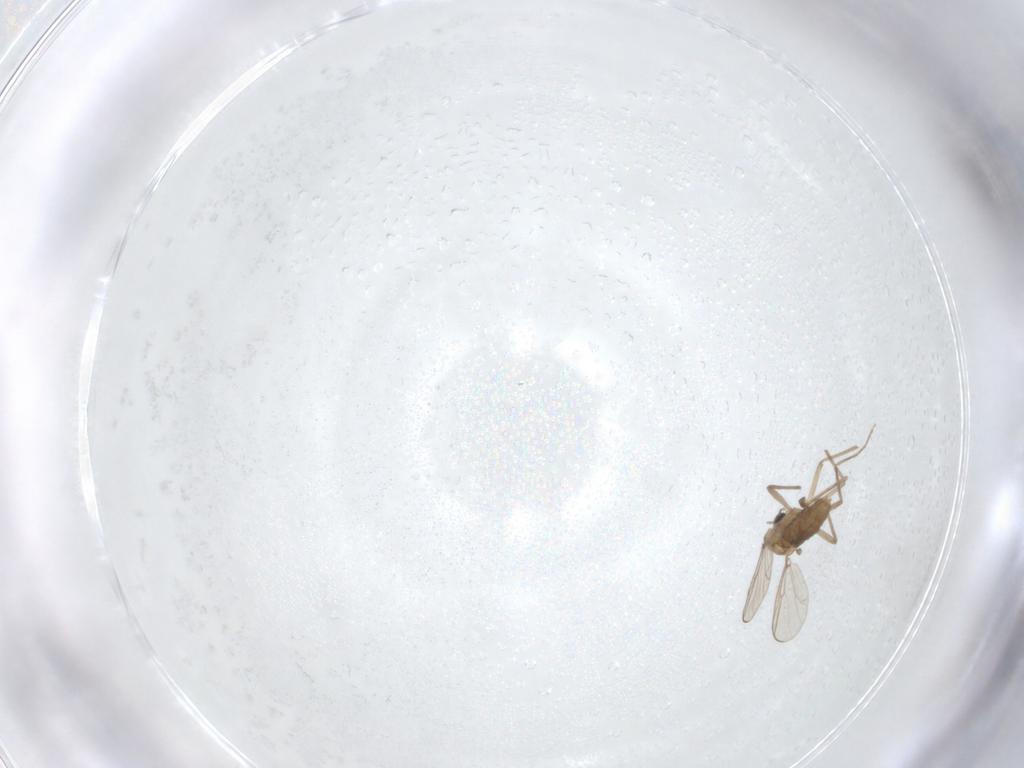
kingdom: Animalia
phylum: Arthropoda
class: Insecta
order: Diptera
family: Chironomidae
